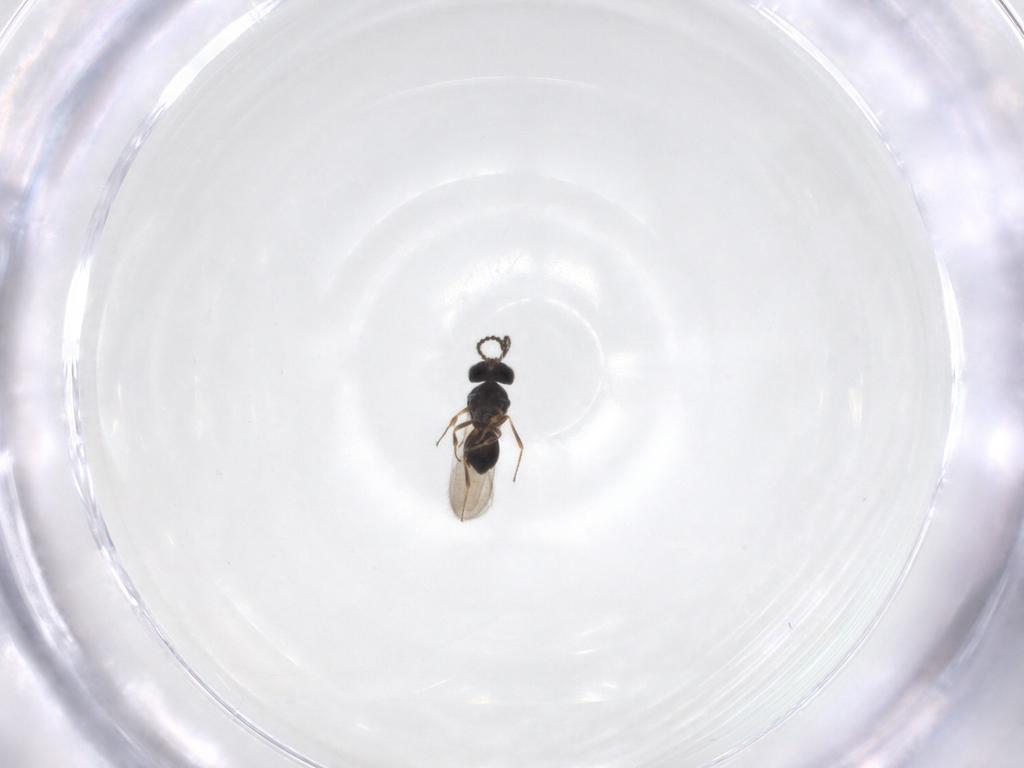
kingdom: Animalia
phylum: Arthropoda
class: Insecta
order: Hymenoptera
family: Scelionidae
